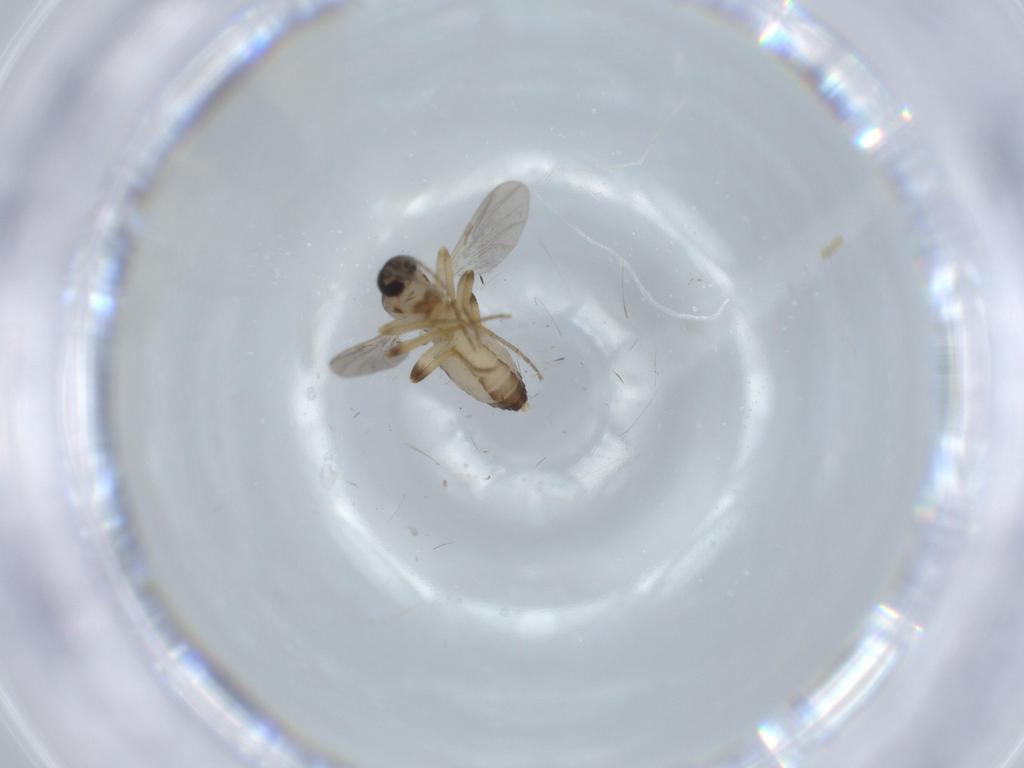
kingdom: Animalia
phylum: Arthropoda
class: Insecta
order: Diptera
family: Ceratopogonidae
